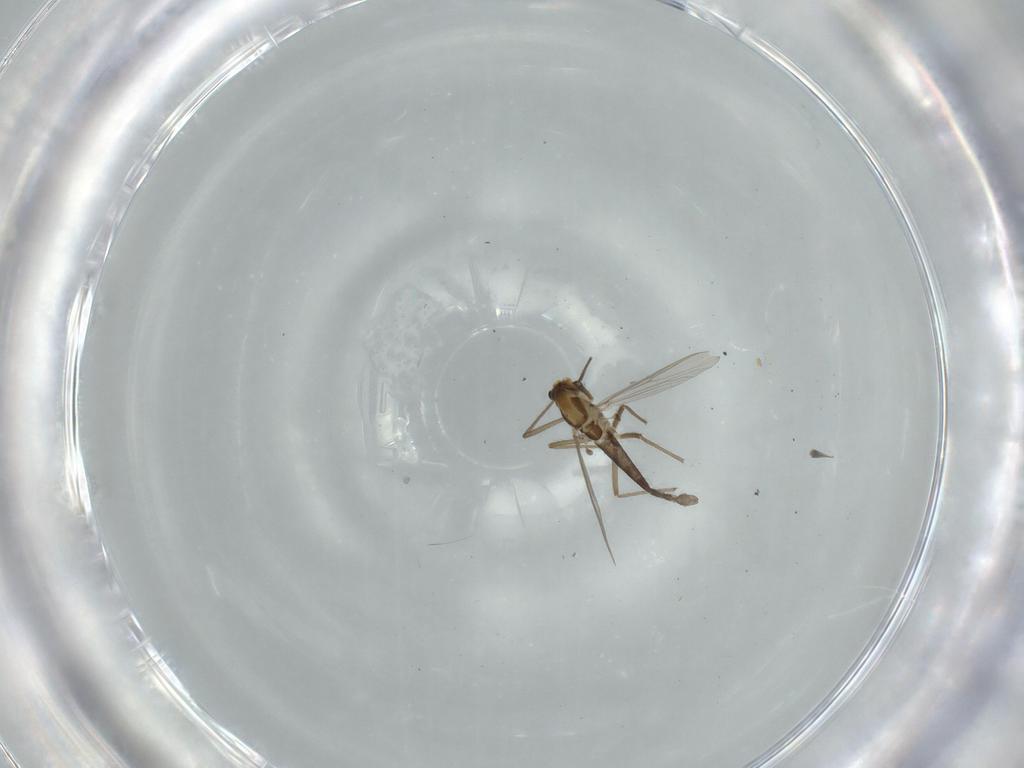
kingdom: Animalia
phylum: Arthropoda
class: Insecta
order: Diptera
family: Chironomidae
